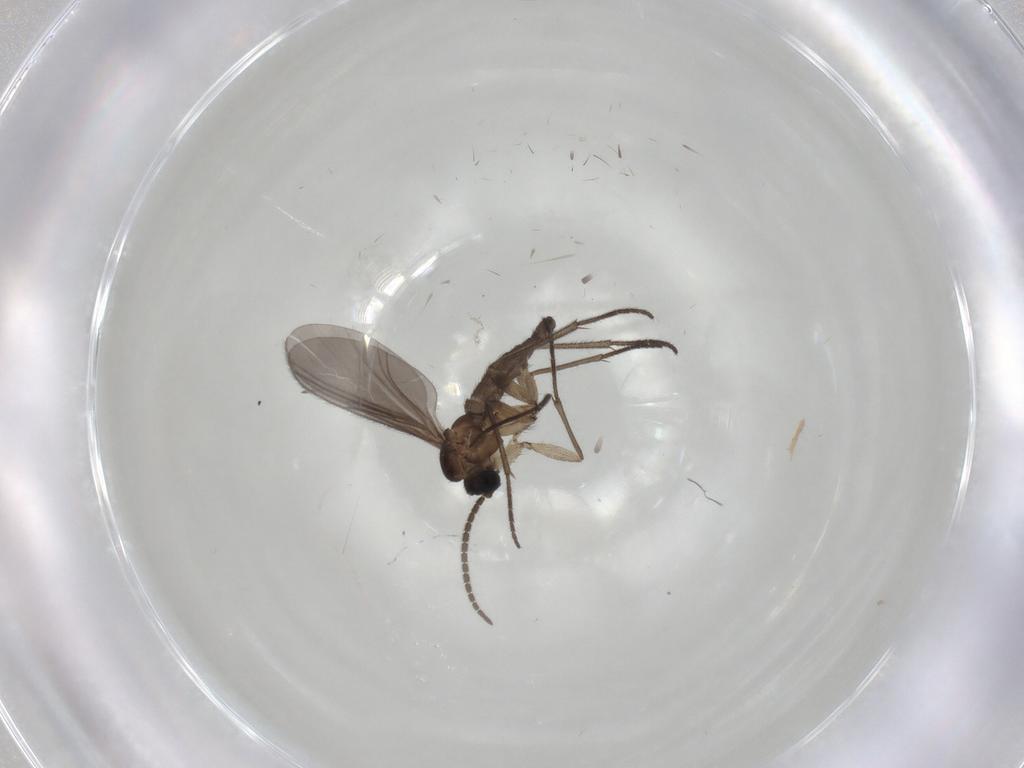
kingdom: Animalia
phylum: Arthropoda
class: Insecta
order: Diptera
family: Sciaridae
